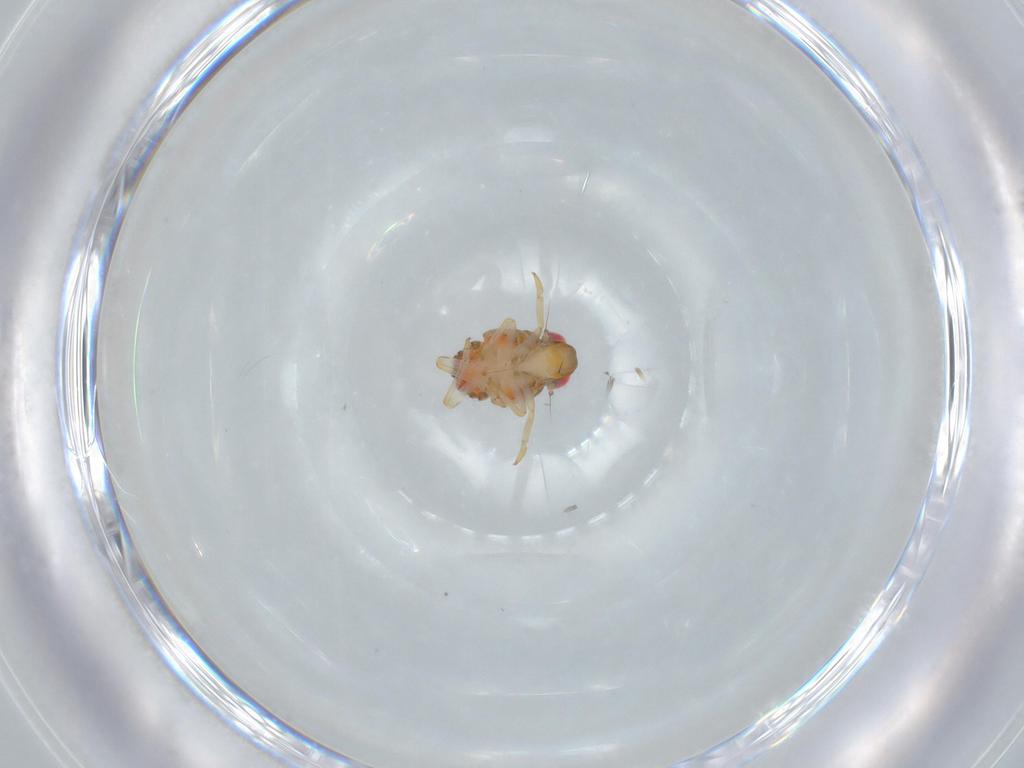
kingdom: Animalia
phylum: Arthropoda
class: Insecta
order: Hemiptera
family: Issidae
